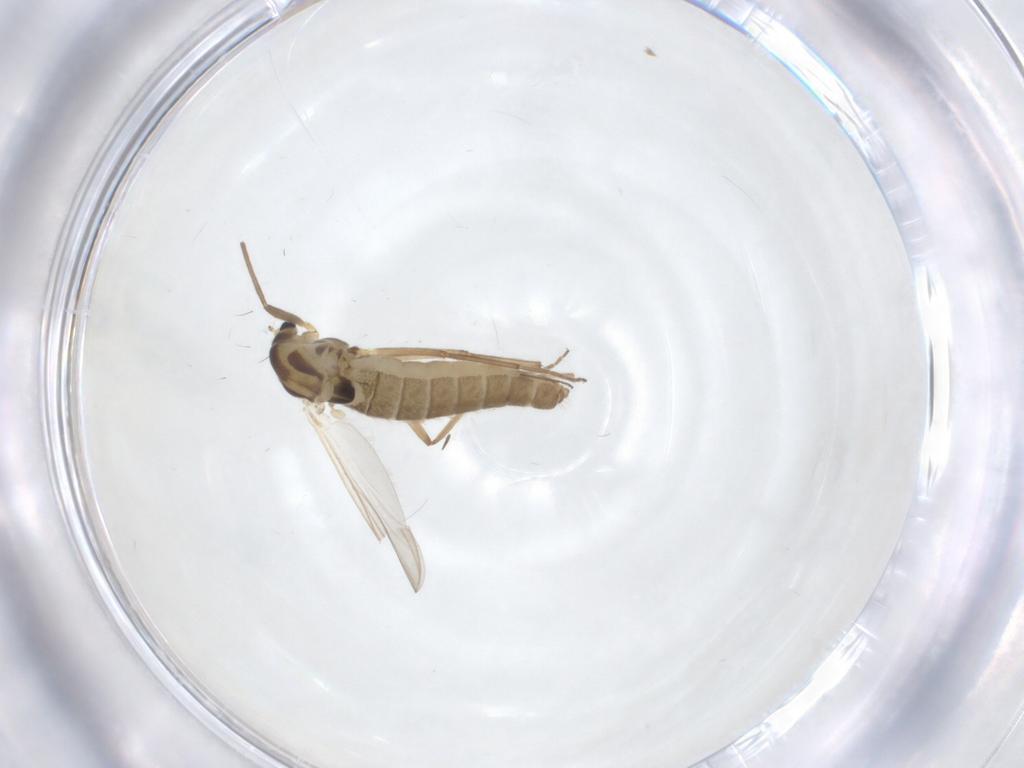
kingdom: Animalia
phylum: Arthropoda
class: Insecta
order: Diptera
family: Chironomidae
